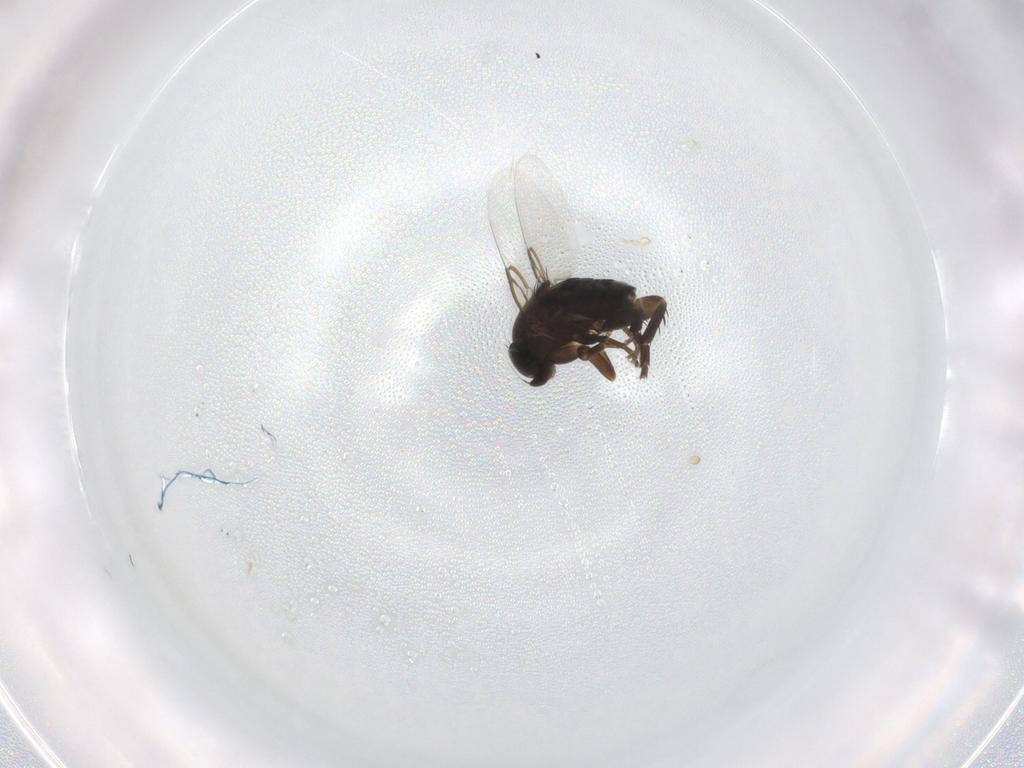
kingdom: Animalia
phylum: Arthropoda
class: Insecta
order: Diptera
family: Phoridae
